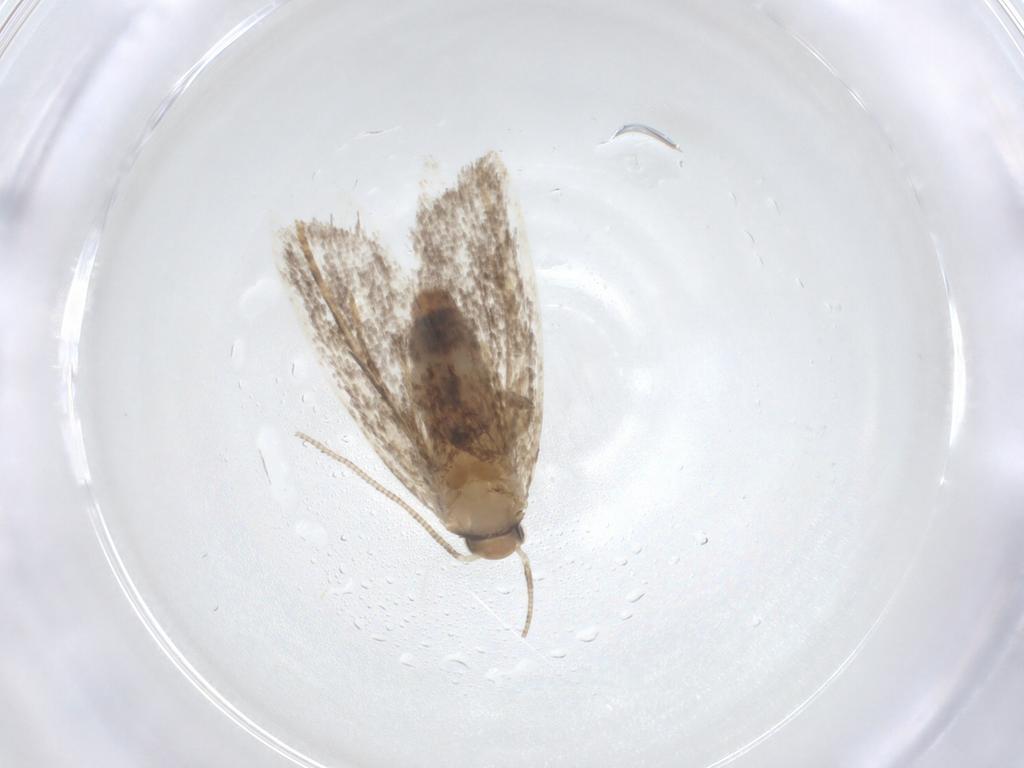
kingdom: Animalia
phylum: Arthropoda
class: Insecta
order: Lepidoptera
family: Dryadaulidae
